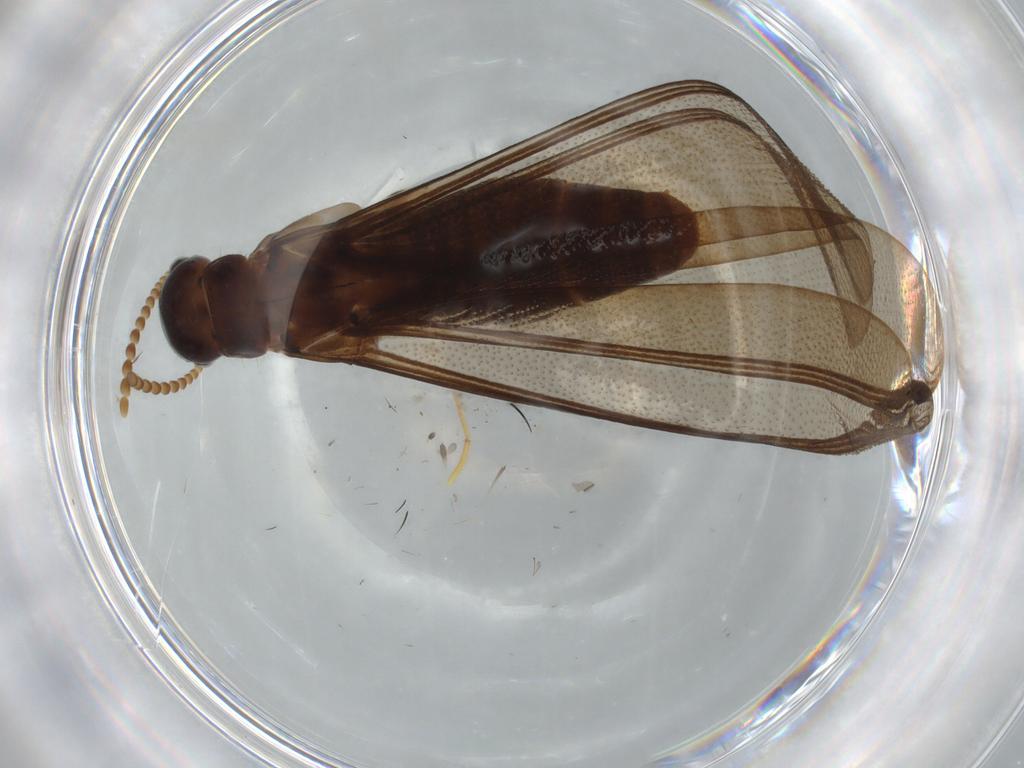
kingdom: Animalia
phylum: Arthropoda
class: Insecta
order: Blattodea
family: Kalotermitidae
